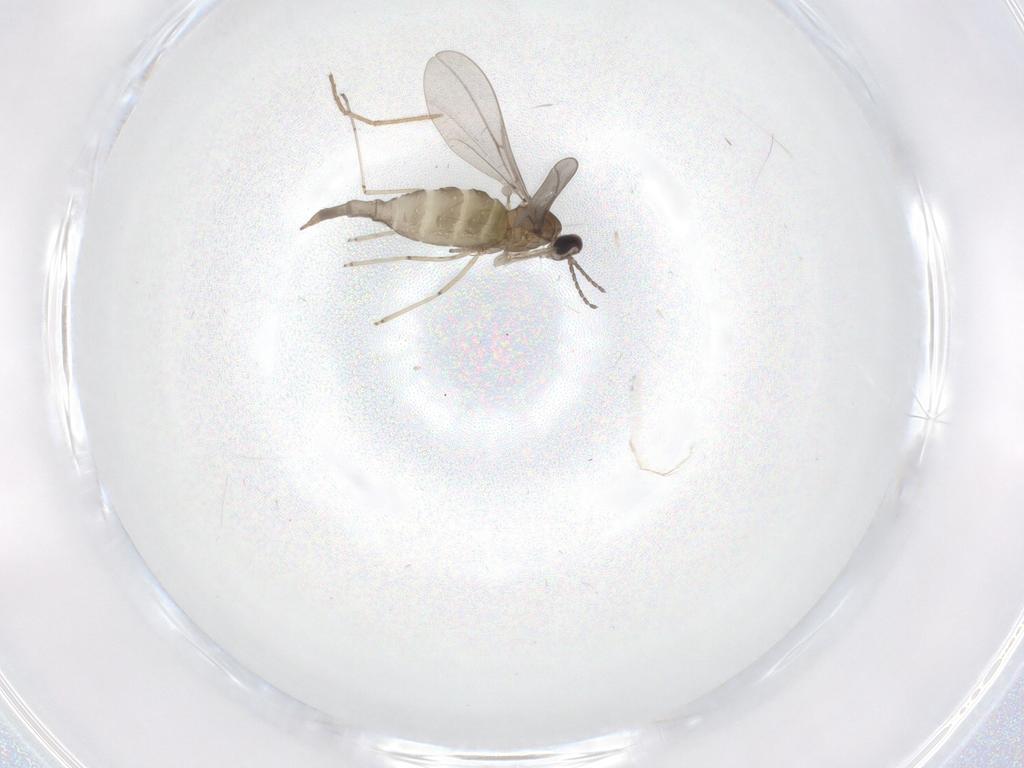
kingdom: Animalia
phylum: Arthropoda
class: Insecta
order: Diptera
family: Cecidomyiidae
